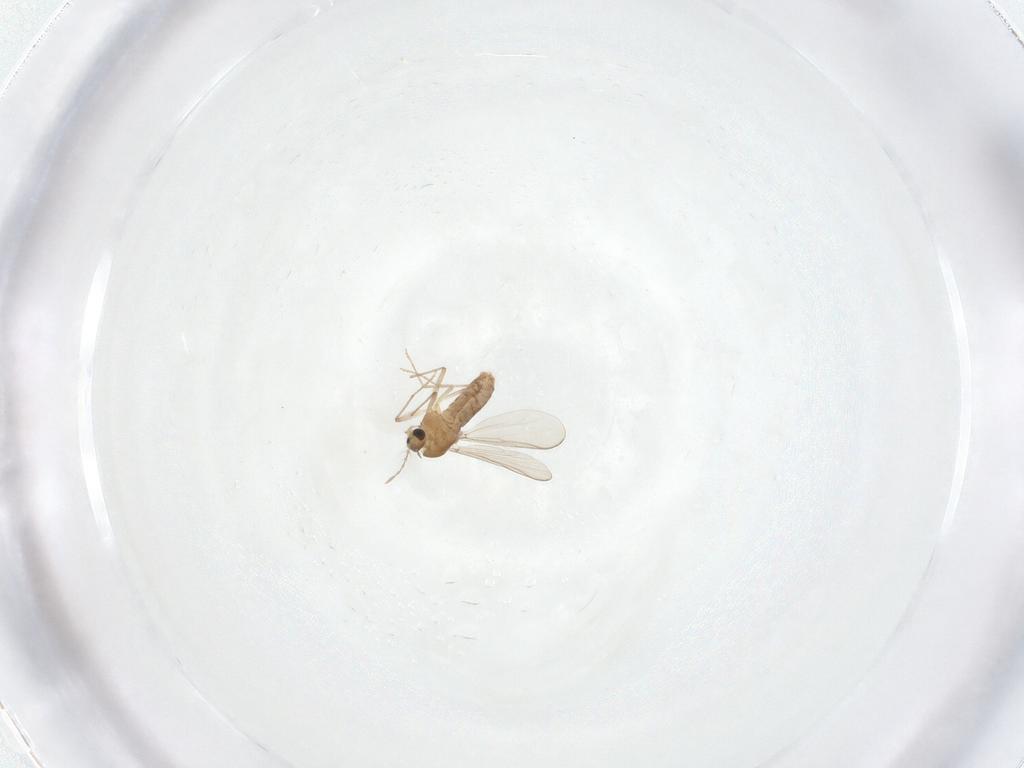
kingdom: Animalia
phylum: Arthropoda
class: Insecta
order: Diptera
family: Chironomidae
